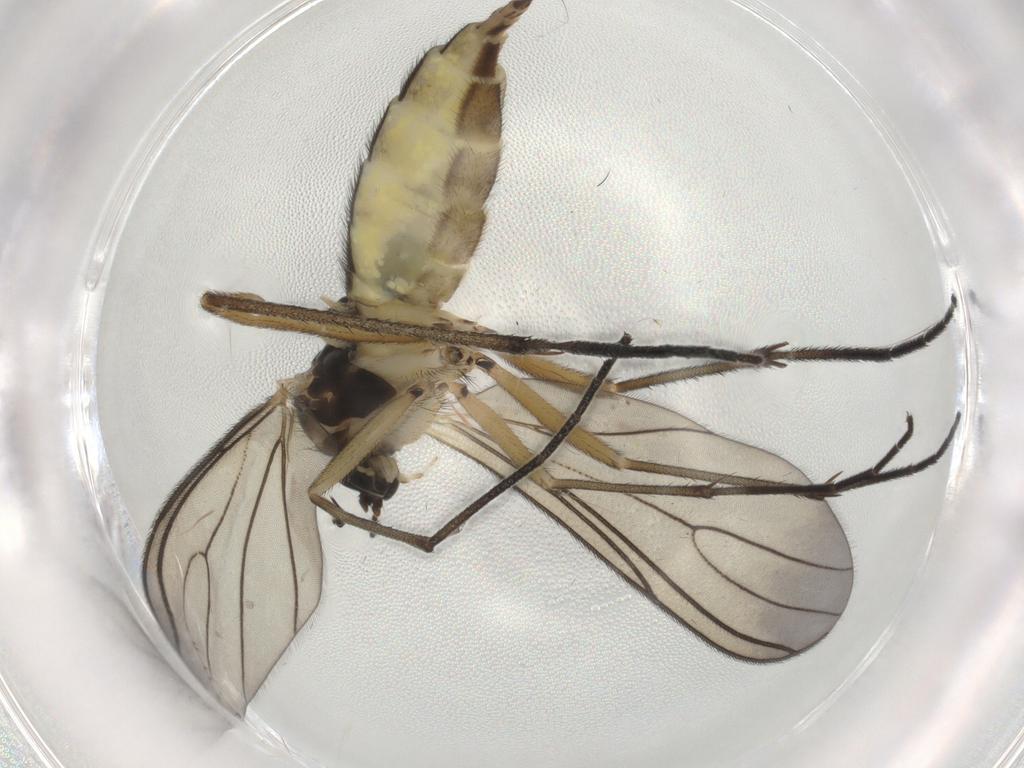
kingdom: Animalia
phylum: Arthropoda
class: Insecta
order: Diptera
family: Sciaridae
